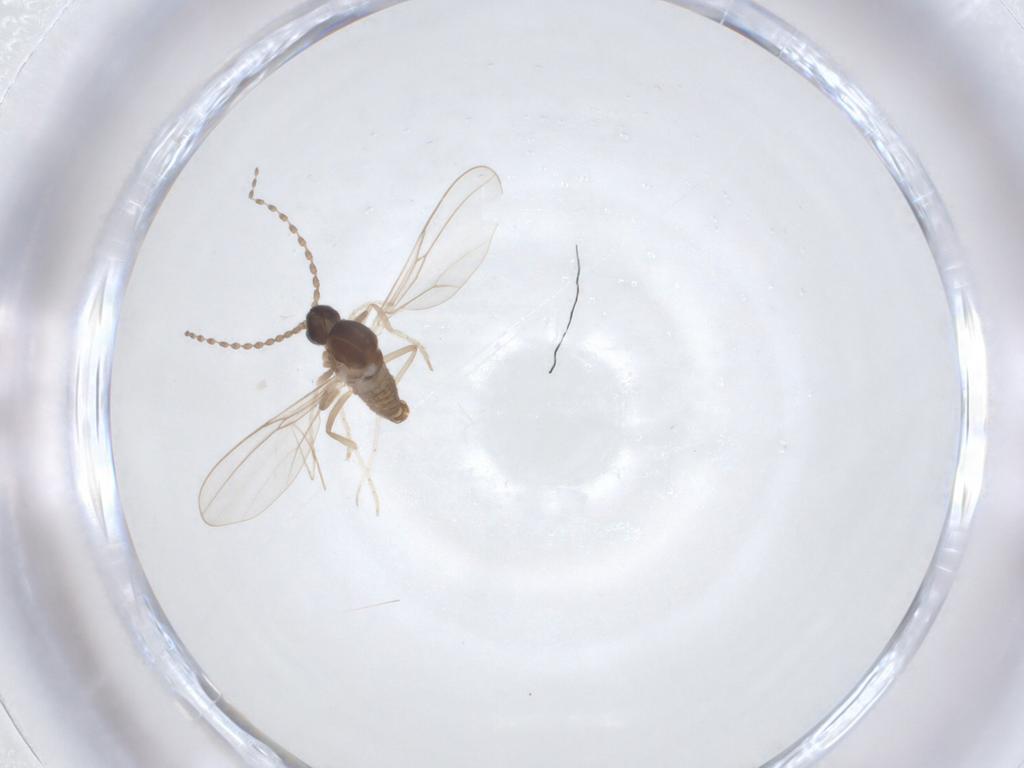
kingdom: Animalia
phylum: Arthropoda
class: Insecta
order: Diptera
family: Cecidomyiidae
